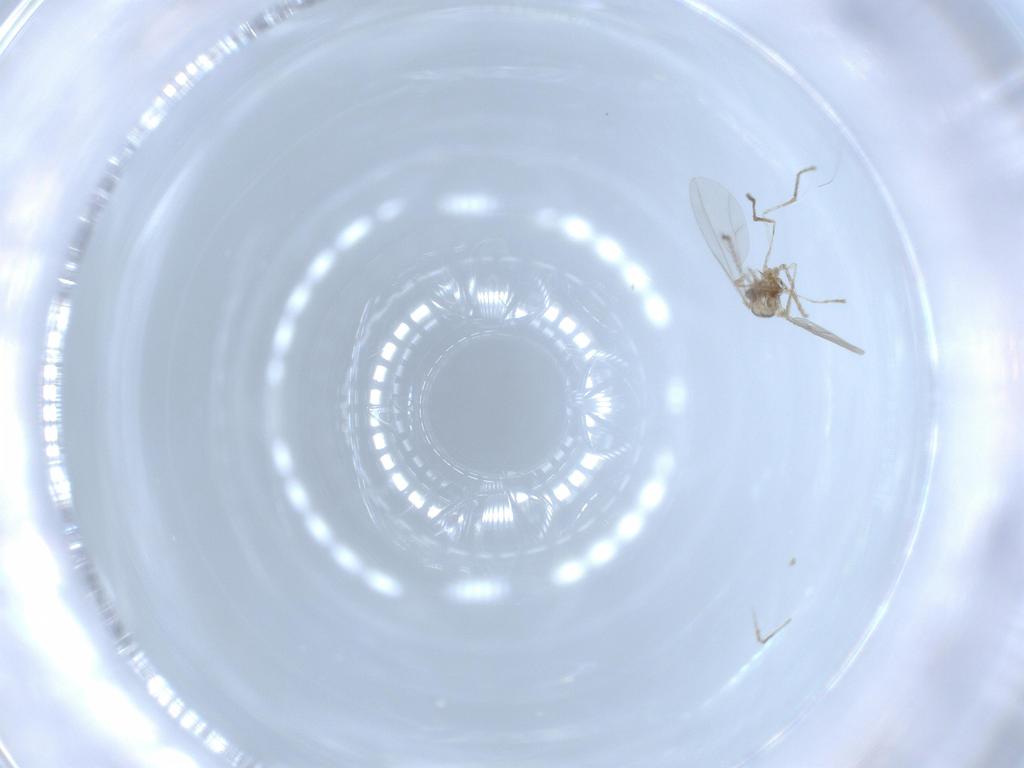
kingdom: Animalia
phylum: Arthropoda
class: Insecta
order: Diptera
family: Cecidomyiidae
